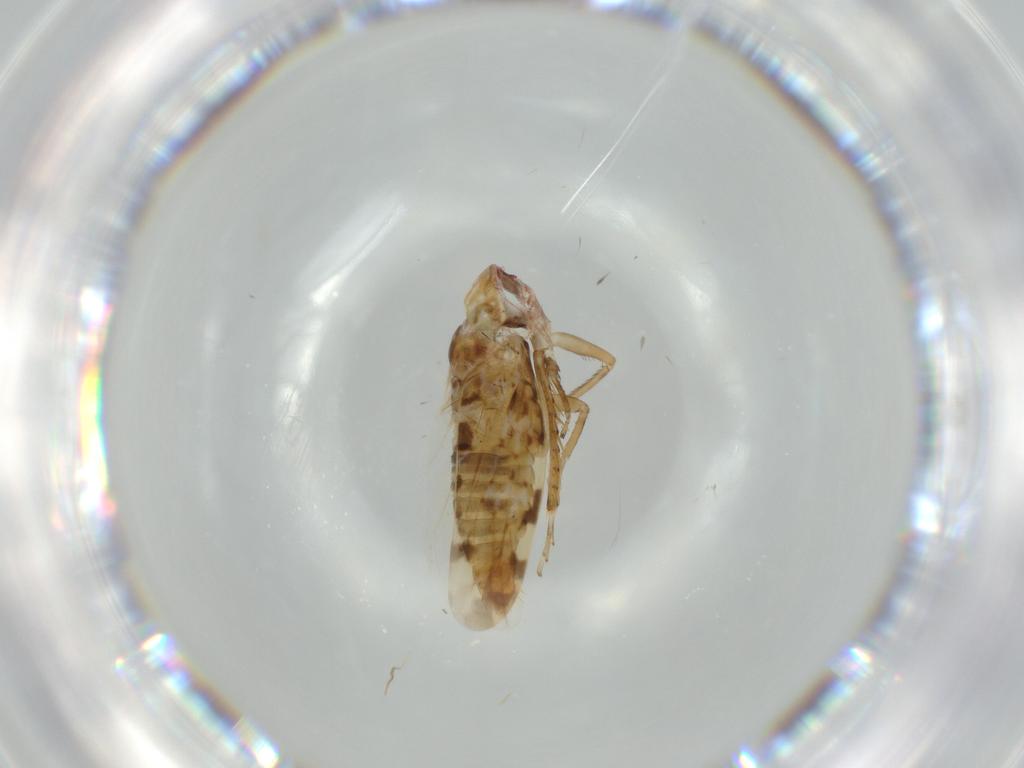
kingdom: Animalia
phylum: Arthropoda
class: Insecta
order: Hemiptera
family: Cicadellidae
